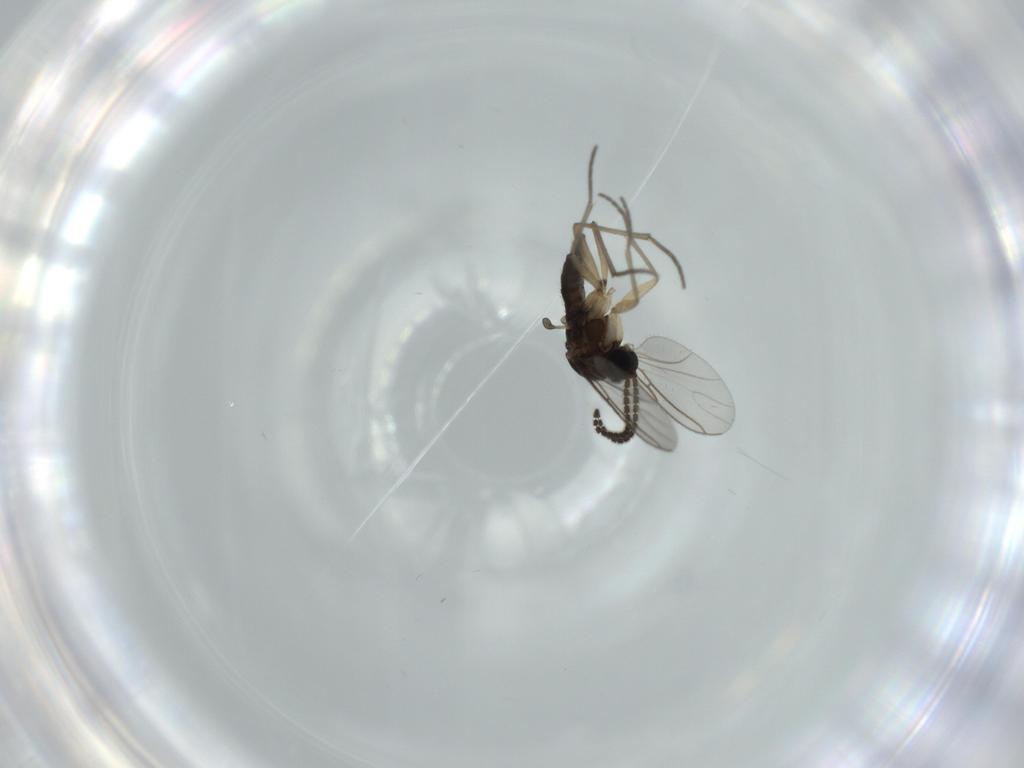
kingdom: Animalia
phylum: Arthropoda
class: Insecta
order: Diptera
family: Sciaridae
